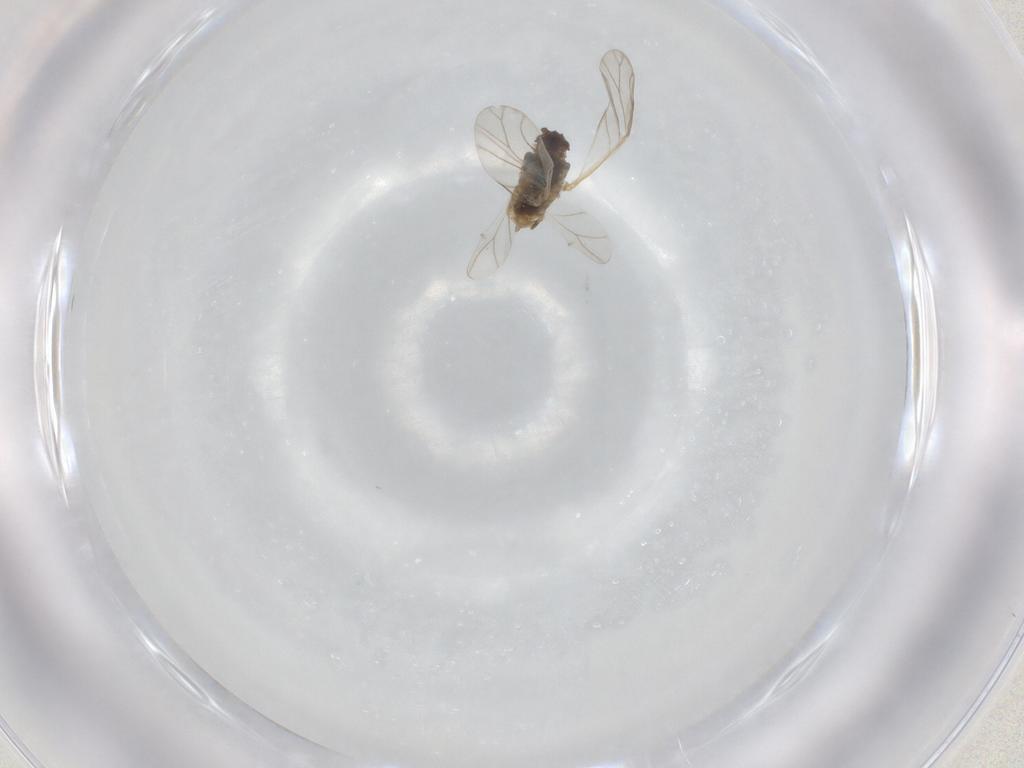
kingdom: Animalia
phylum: Arthropoda
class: Insecta
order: Hemiptera
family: Aphididae
